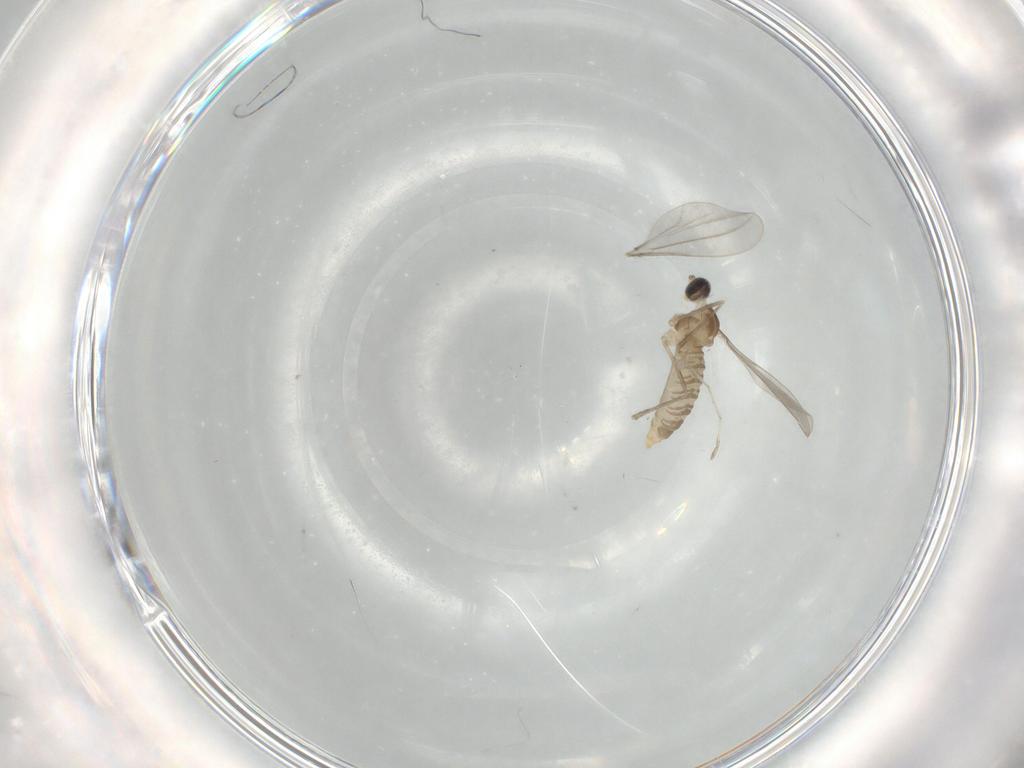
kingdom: Animalia
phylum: Arthropoda
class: Insecta
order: Diptera
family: Cecidomyiidae
